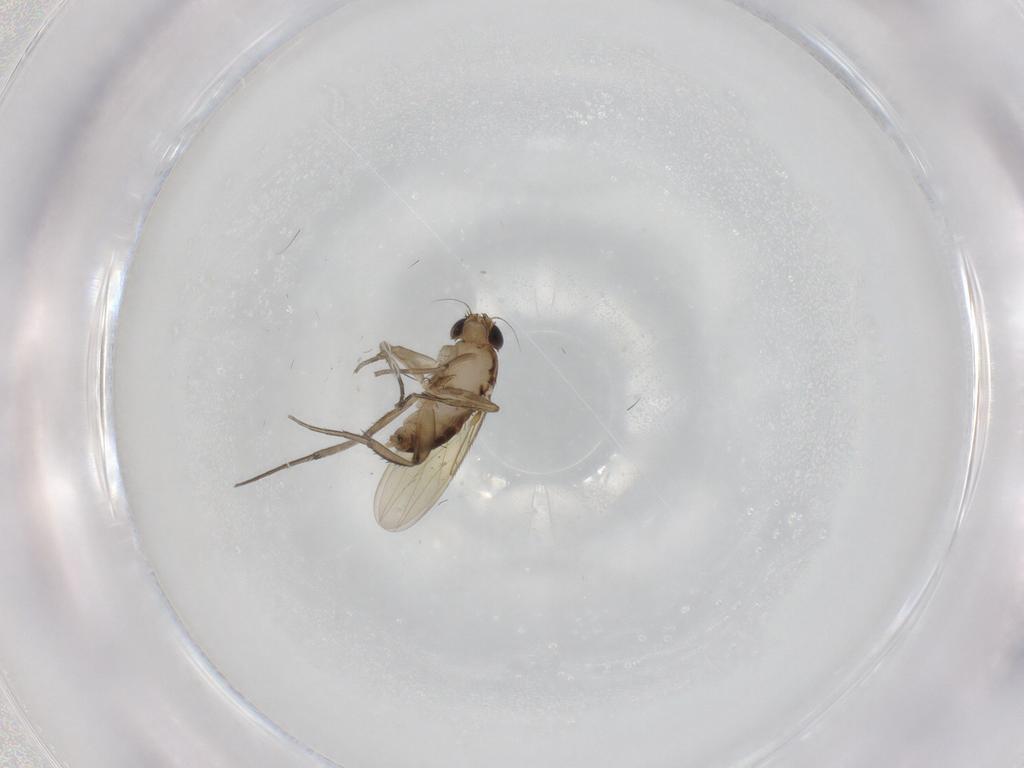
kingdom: Animalia
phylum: Arthropoda
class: Insecta
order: Diptera
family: Phoridae
